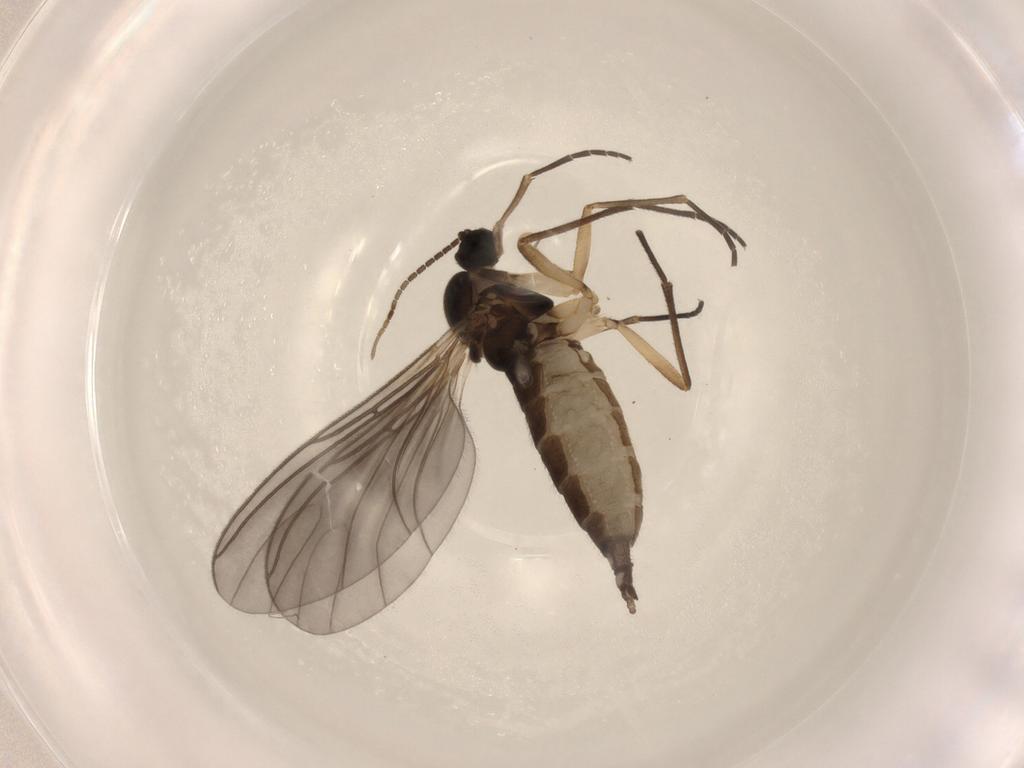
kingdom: Animalia
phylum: Arthropoda
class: Insecta
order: Diptera
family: Sciaridae
